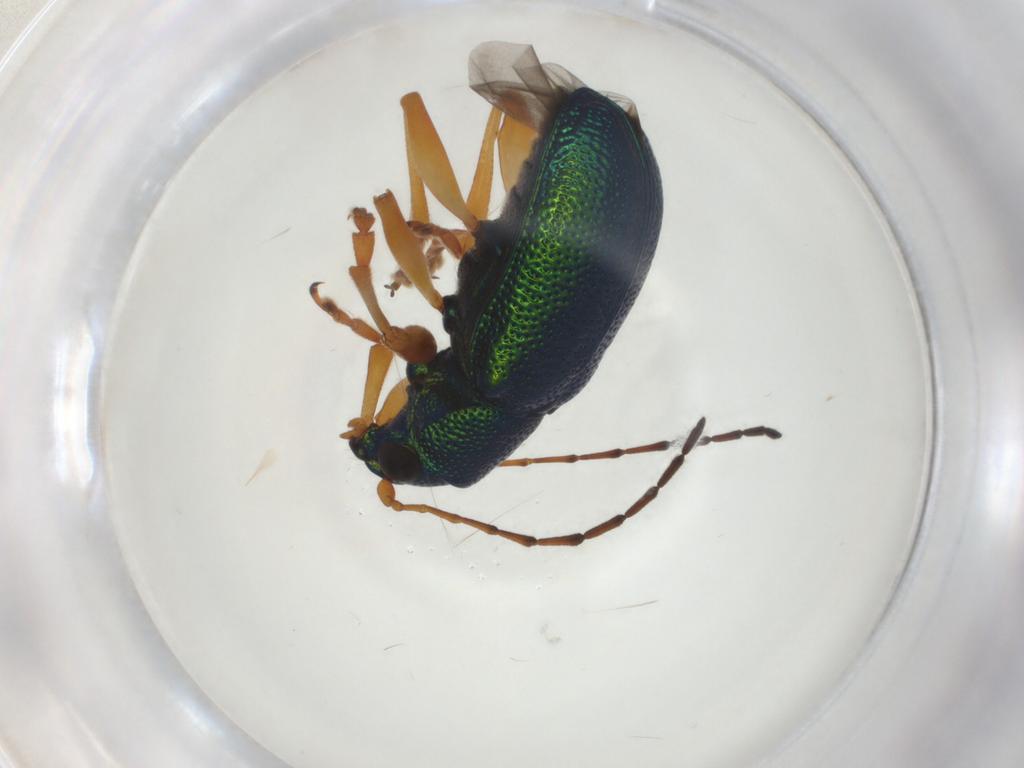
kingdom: Animalia
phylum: Arthropoda
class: Insecta
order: Coleoptera
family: Chrysomelidae
